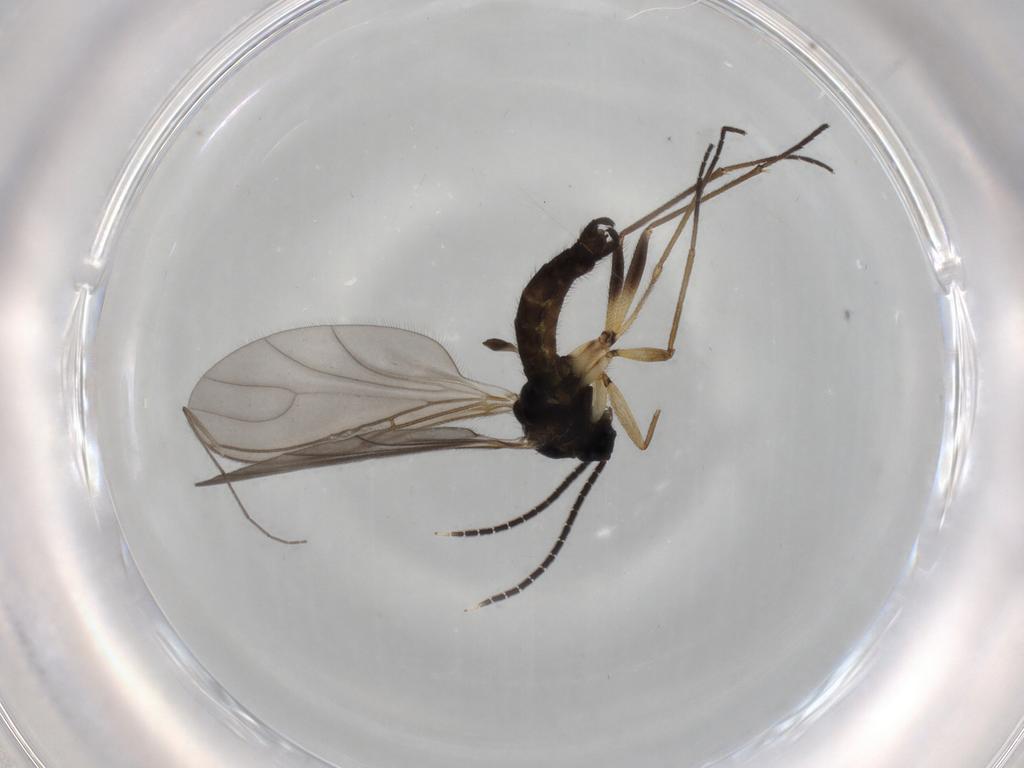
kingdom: Animalia
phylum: Arthropoda
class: Insecta
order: Diptera
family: Sciaridae
